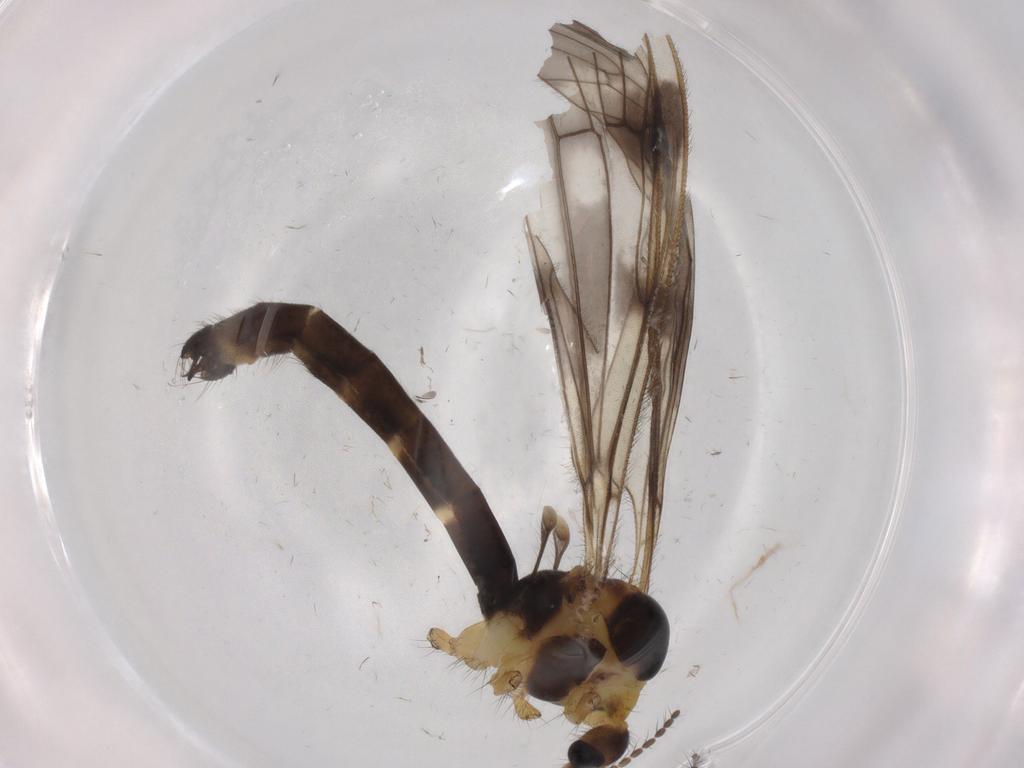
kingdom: Animalia
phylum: Arthropoda
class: Insecta
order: Diptera
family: Limoniidae
